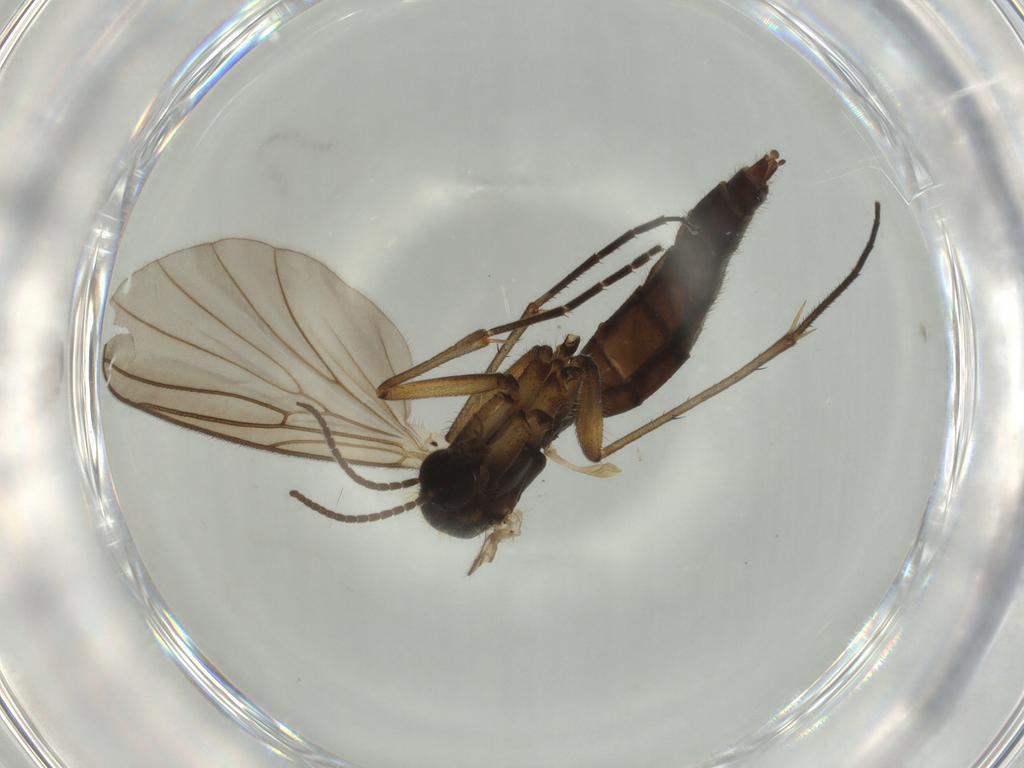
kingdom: Animalia
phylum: Arthropoda
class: Insecta
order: Diptera
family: Mycetophilidae
